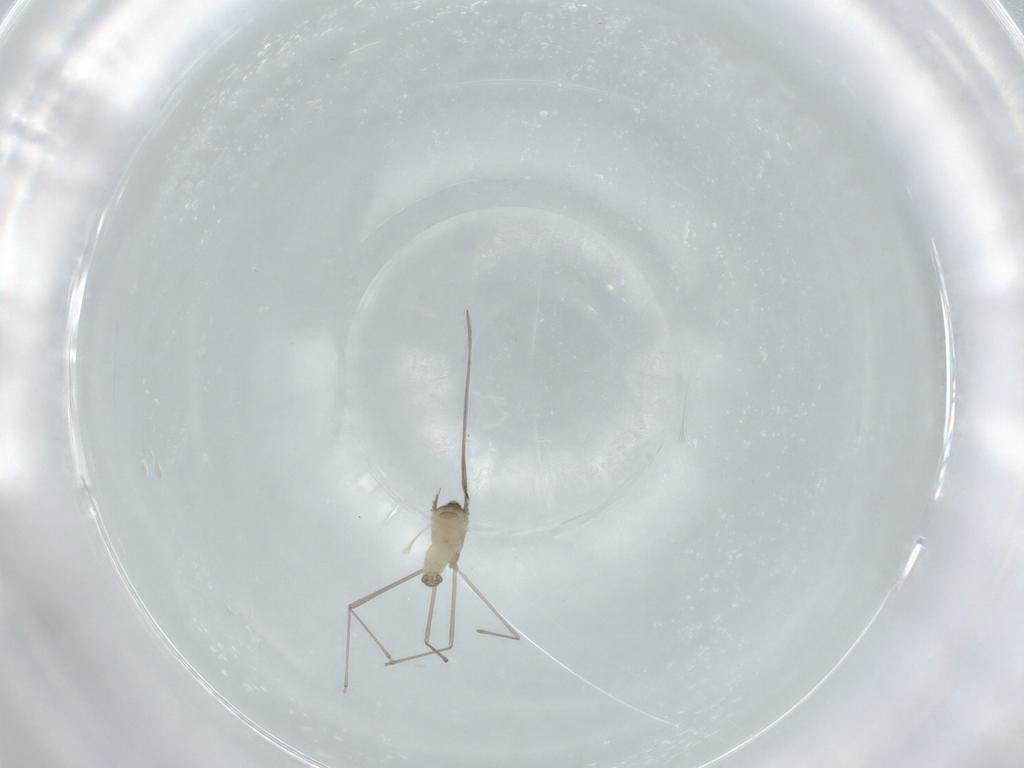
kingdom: Animalia
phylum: Arthropoda
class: Insecta
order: Diptera
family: Cecidomyiidae
